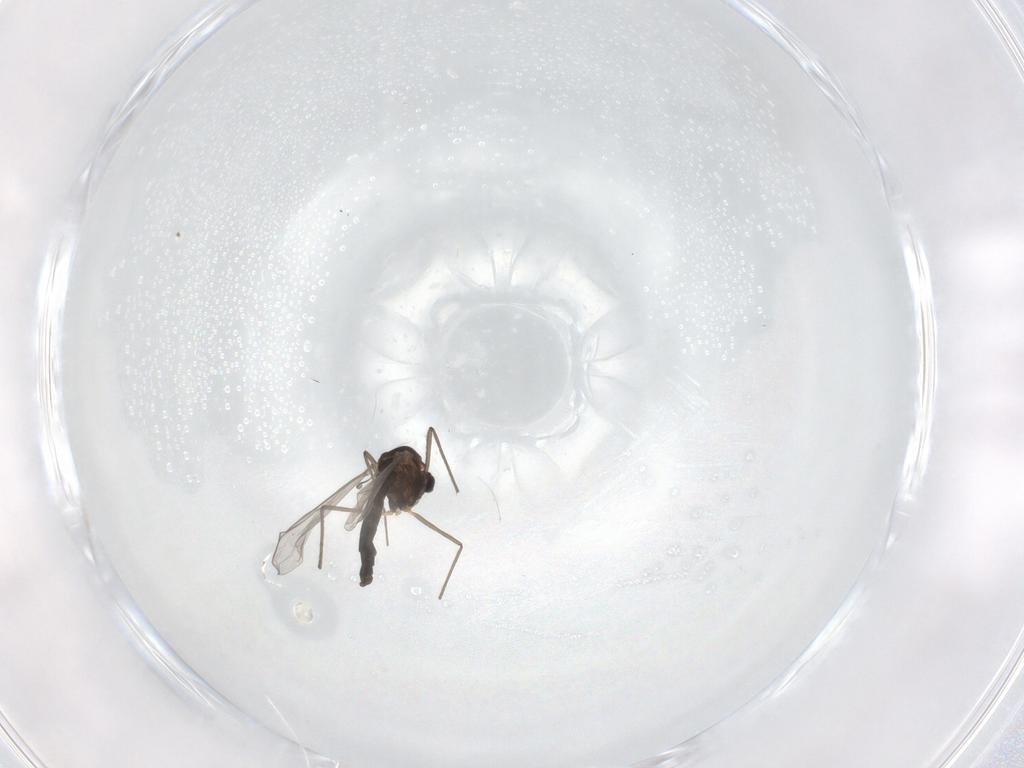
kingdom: Animalia
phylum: Arthropoda
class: Insecta
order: Diptera
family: Chironomidae
